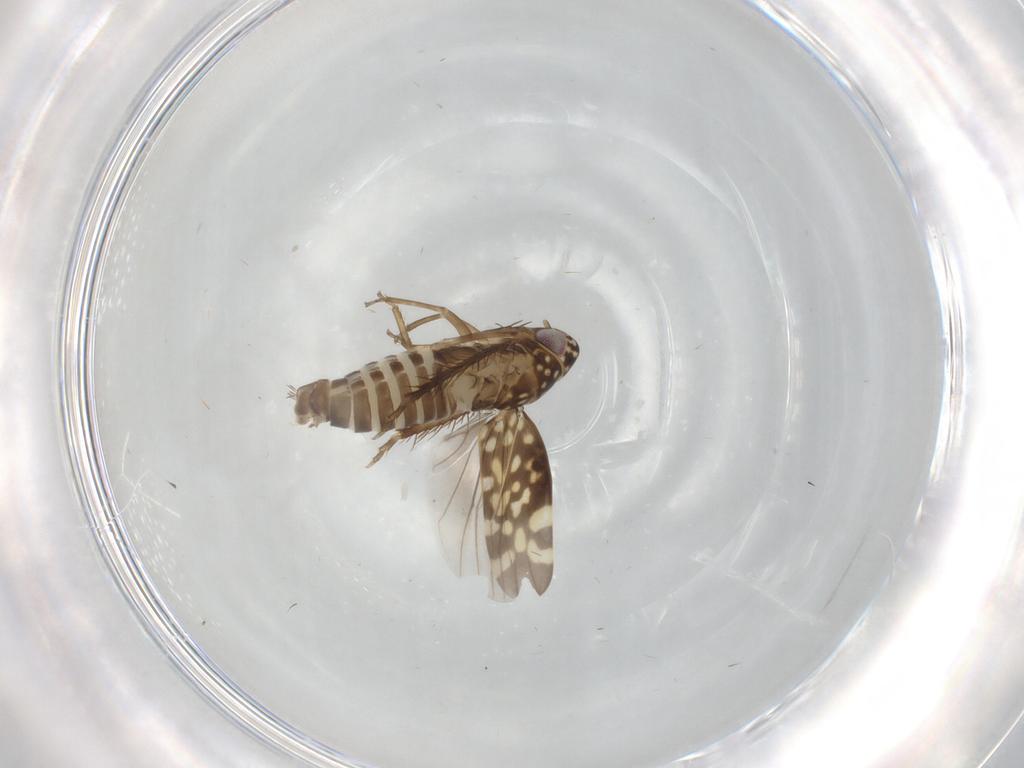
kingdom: Animalia
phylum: Arthropoda
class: Insecta
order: Hemiptera
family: Cicadellidae
